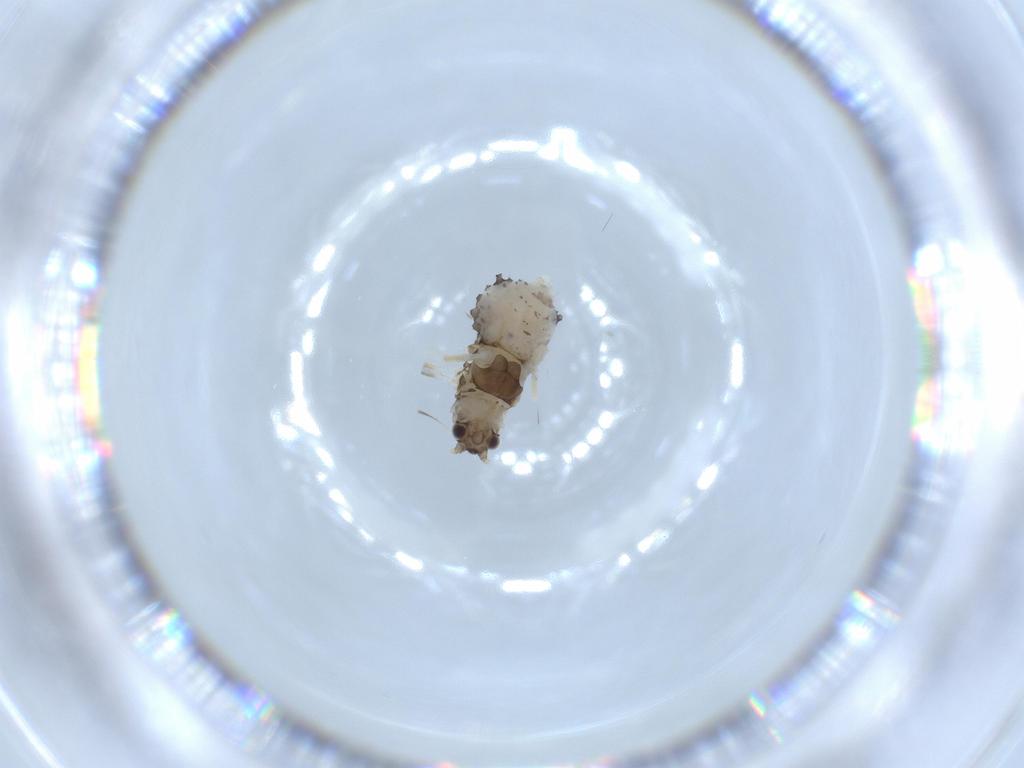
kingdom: Animalia
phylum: Arthropoda
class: Insecta
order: Hemiptera
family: Aphididae
